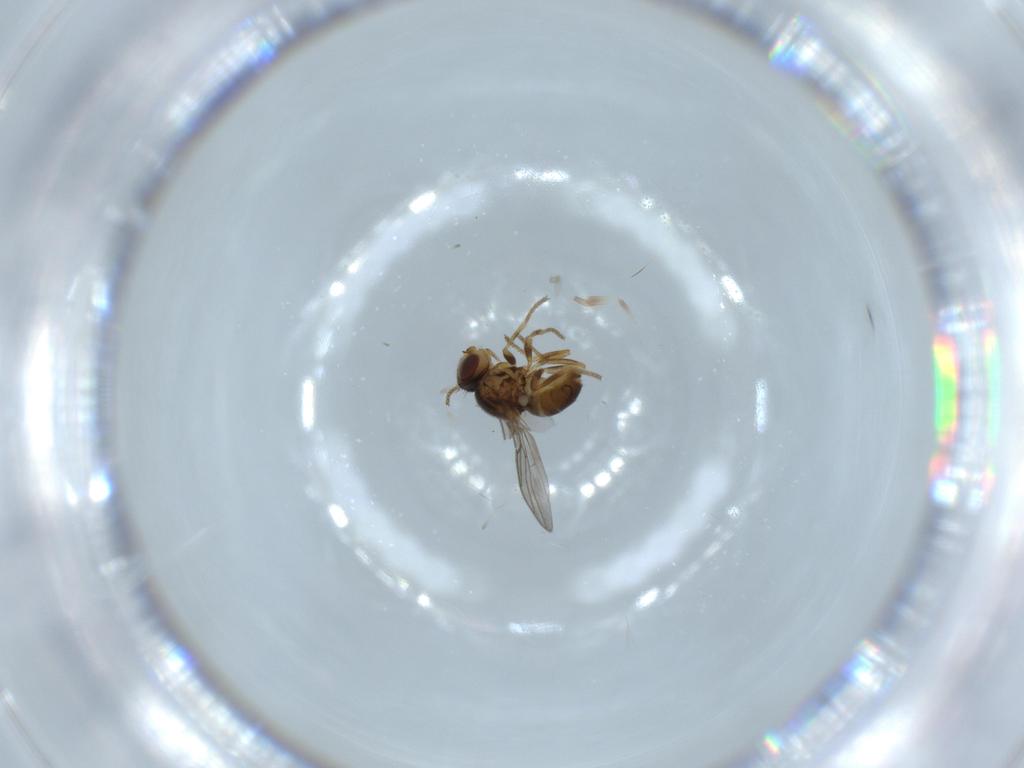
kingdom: Animalia
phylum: Arthropoda
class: Insecta
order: Diptera
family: Chloropidae
